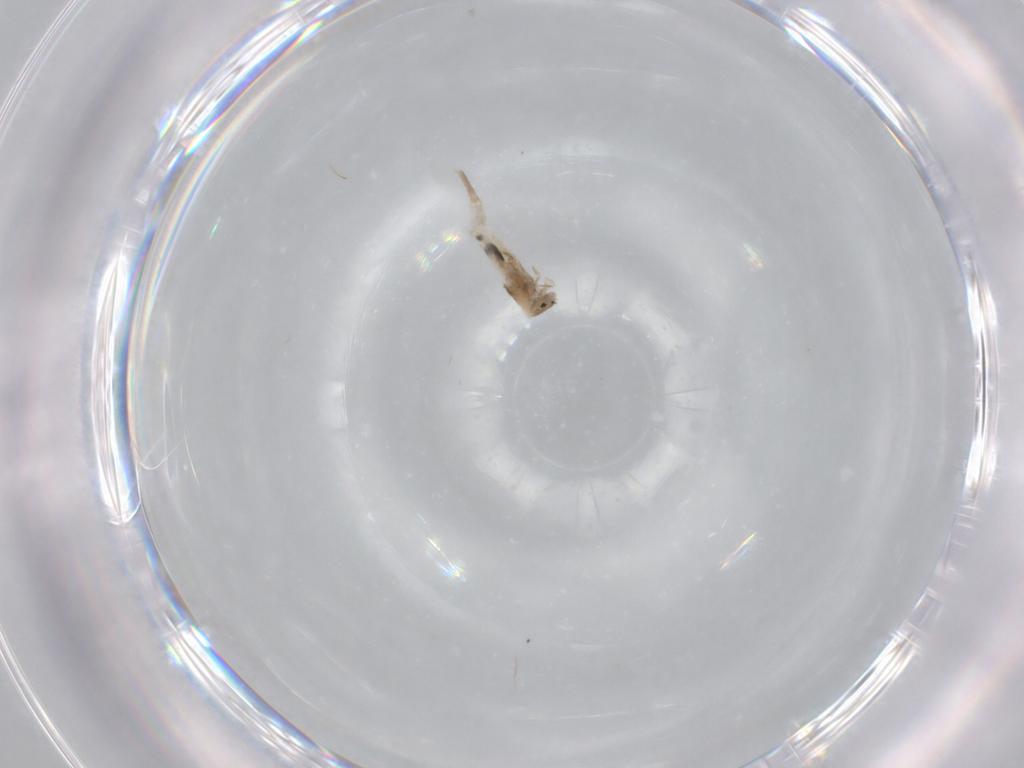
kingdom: Animalia
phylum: Arthropoda
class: Collembola
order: Entomobryomorpha
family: Entomobryidae
